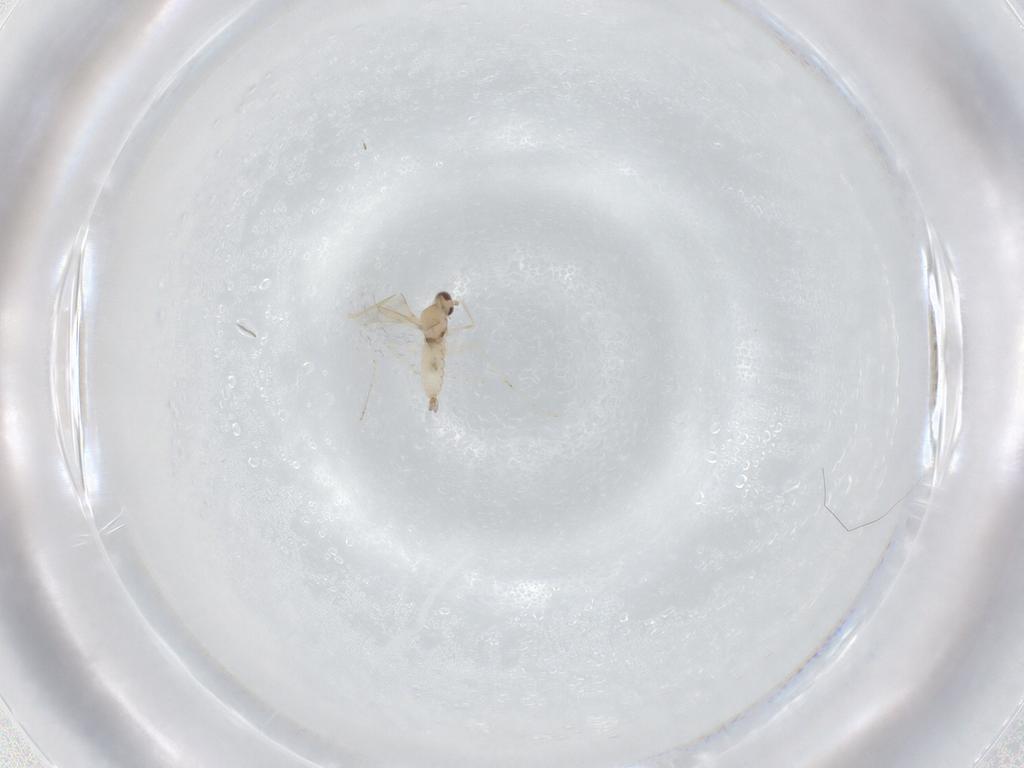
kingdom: Animalia
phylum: Arthropoda
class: Insecta
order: Diptera
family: Cecidomyiidae
